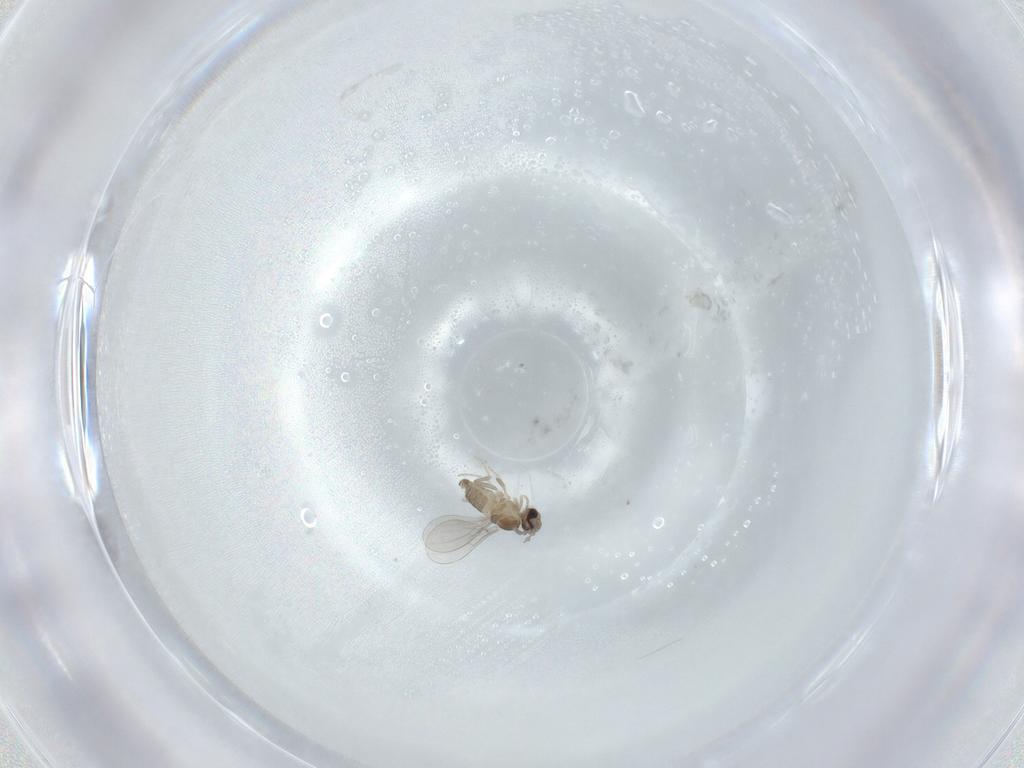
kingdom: Animalia
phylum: Arthropoda
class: Insecta
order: Diptera
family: Cecidomyiidae
